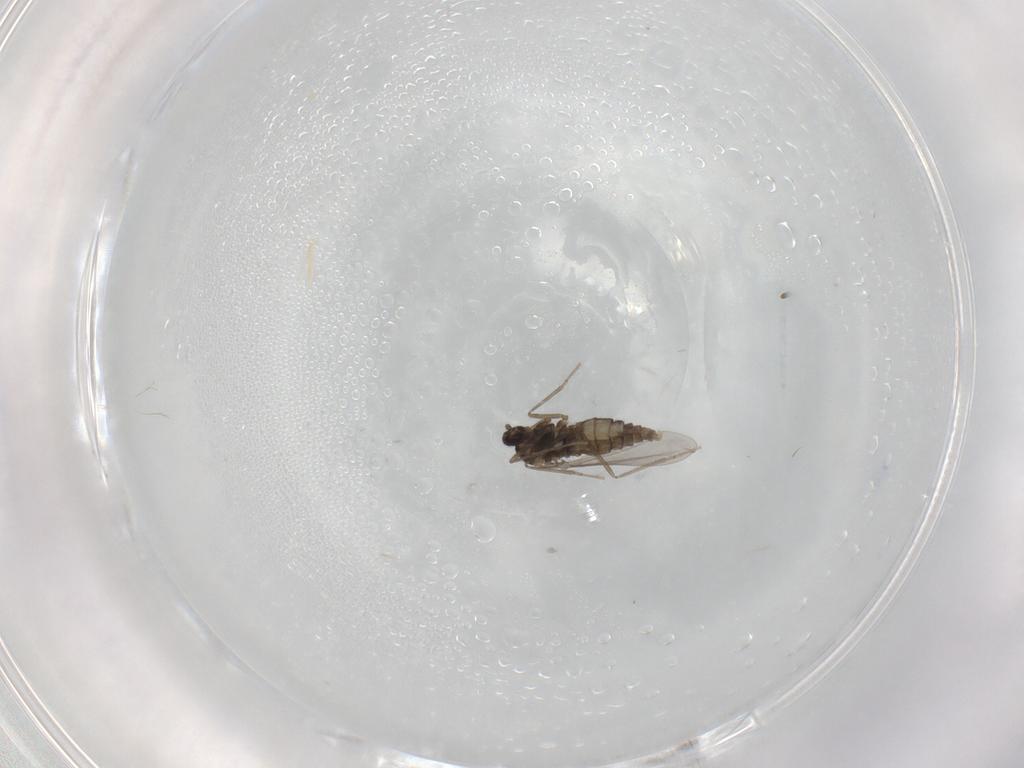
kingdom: Animalia
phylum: Arthropoda
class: Insecta
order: Diptera
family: Cecidomyiidae
